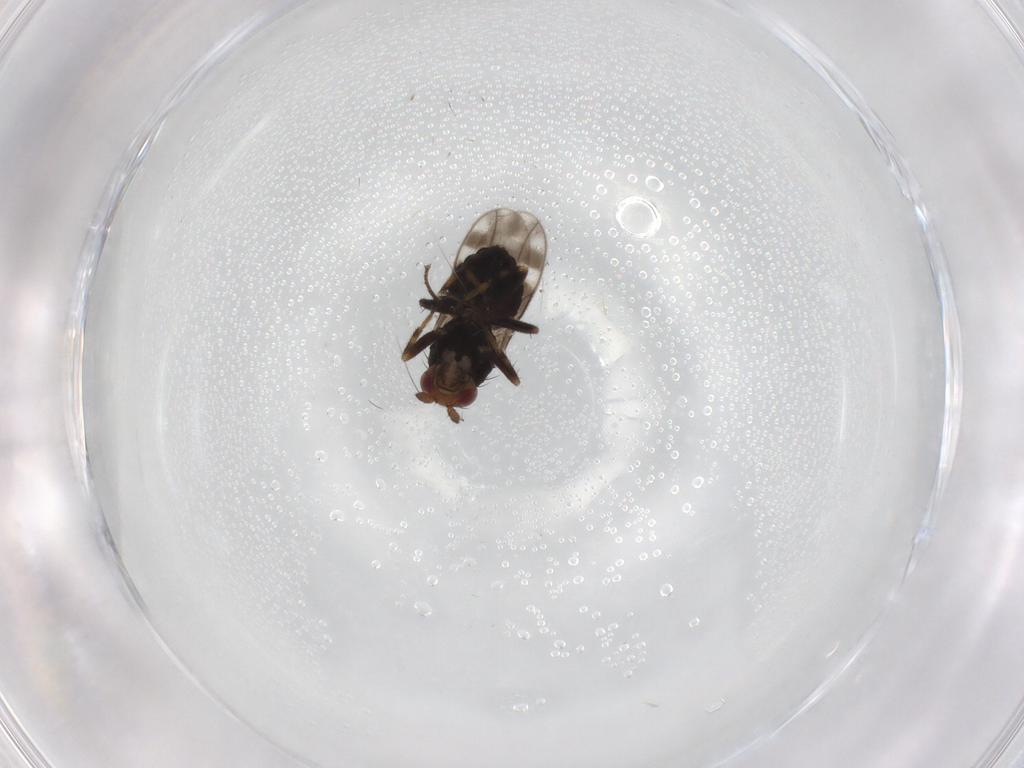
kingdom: Animalia
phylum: Arthropoda
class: Insecta
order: Diptera
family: Sphaeroceridae
